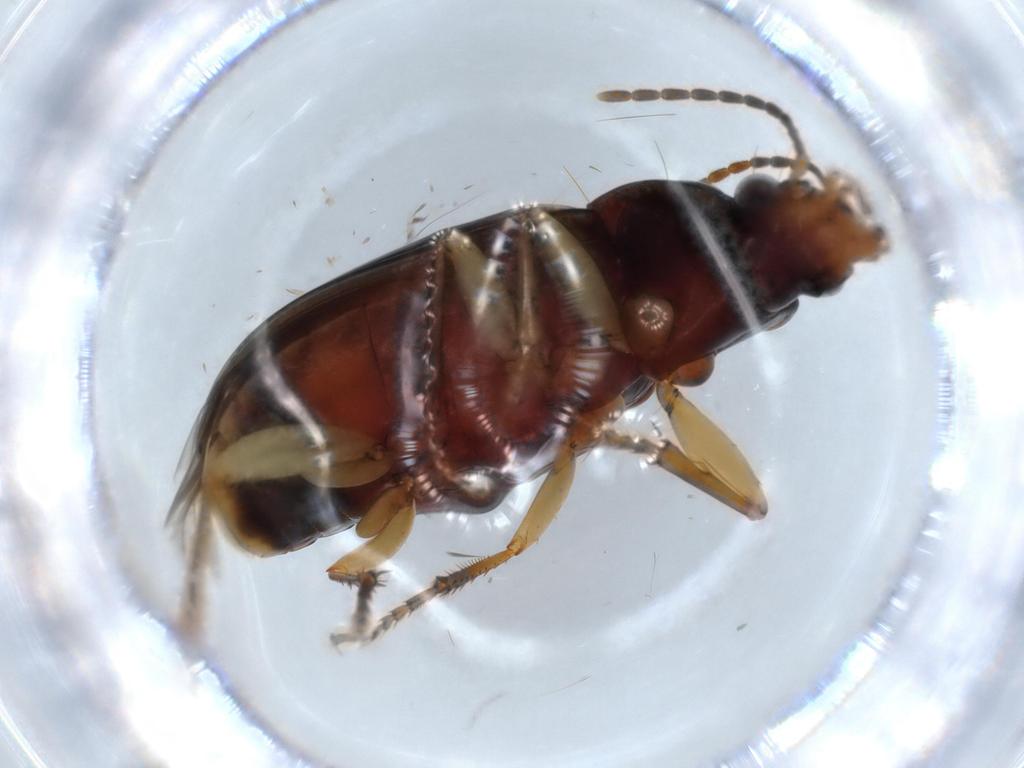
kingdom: Animalia
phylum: Arthropoda
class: Insecta
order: Coleoptera
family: Carabidae
